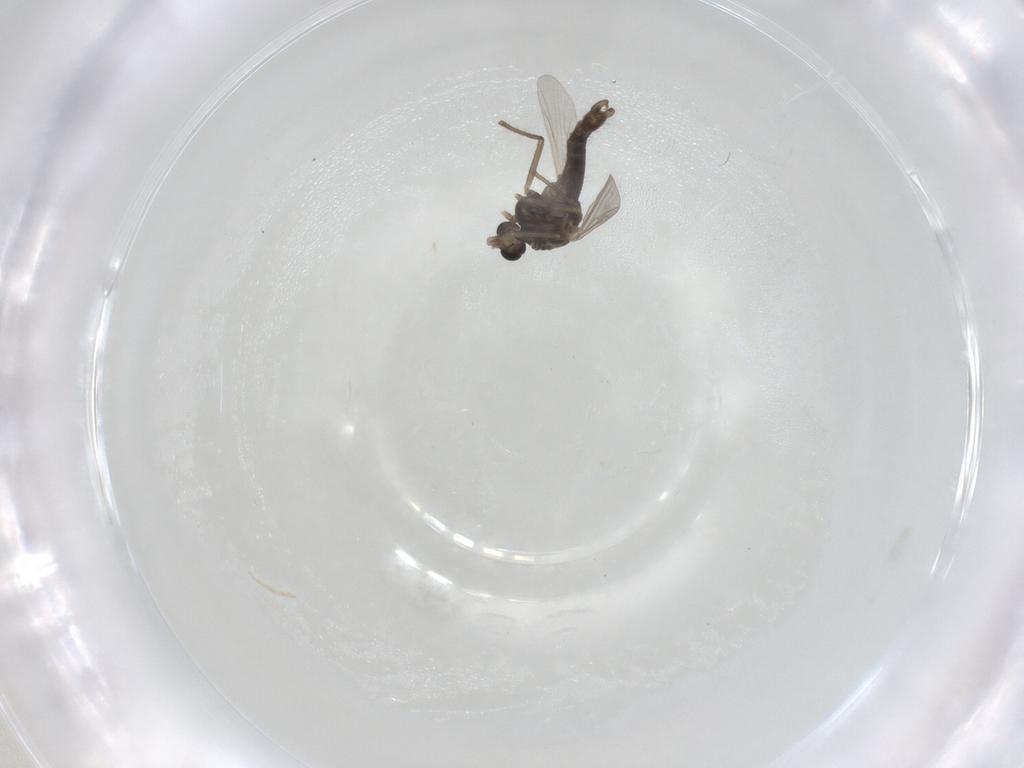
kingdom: Animalia
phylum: Arthropoda
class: Insecta
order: Diptera
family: Chironomidae
